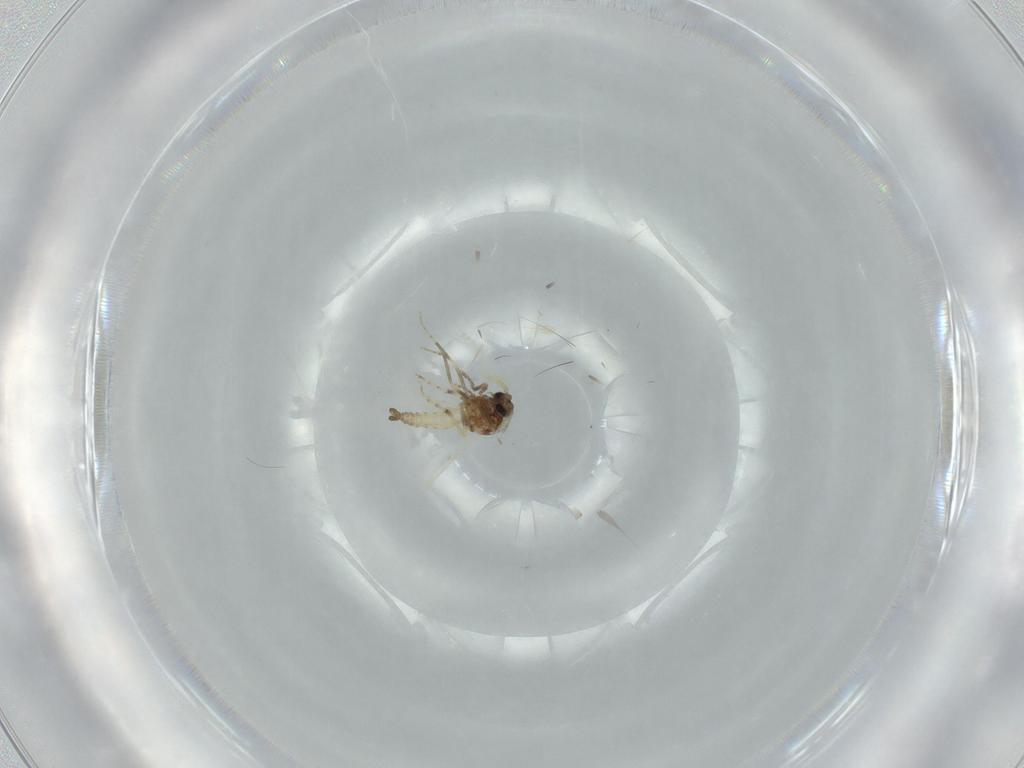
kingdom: Animalia
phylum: Arthropoda
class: Insecta
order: Diptera
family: Ceratopogonidae
